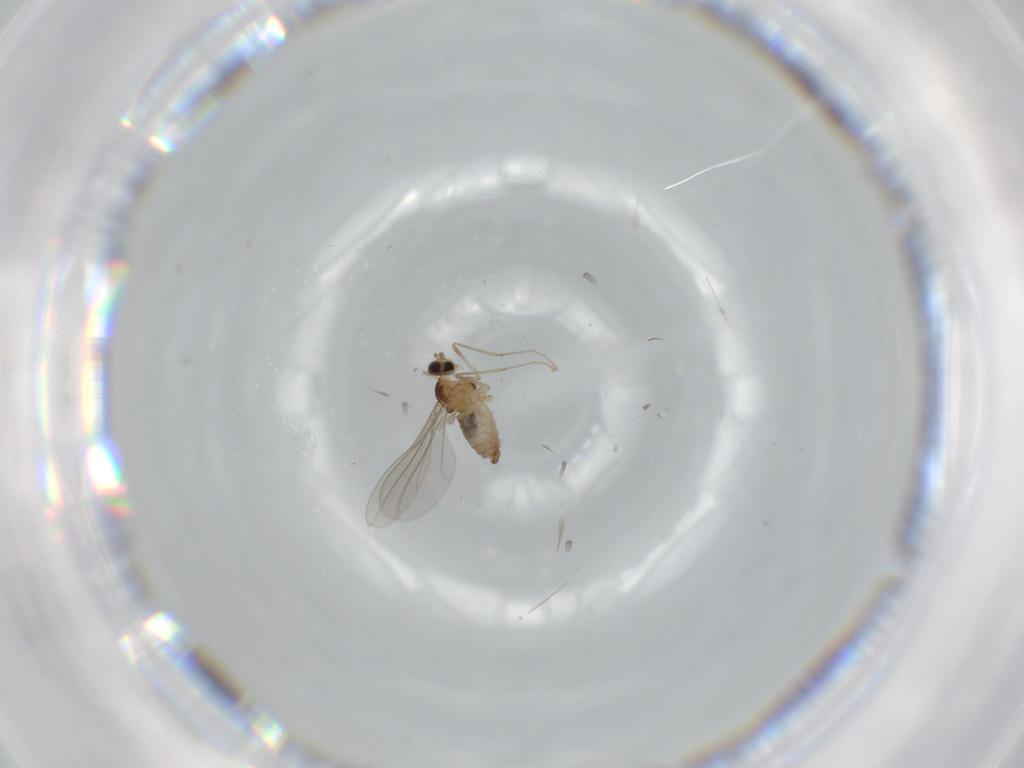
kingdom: Animalia
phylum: Arthropoda
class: Insecta
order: Diptera
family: Cecidomyiidae
